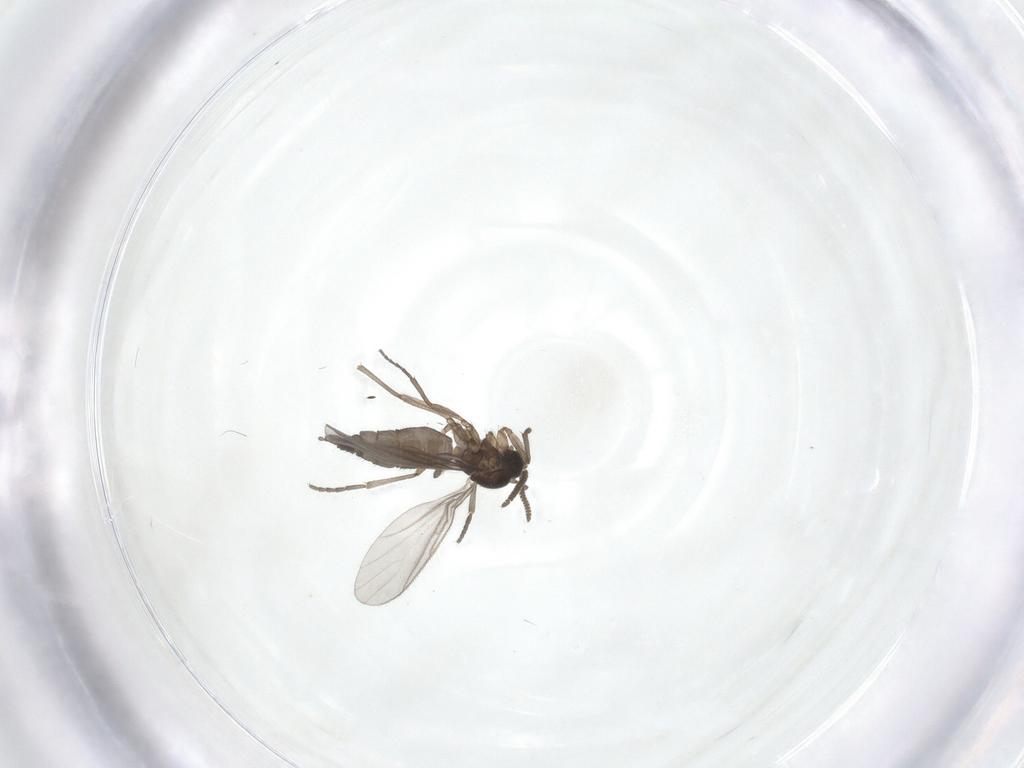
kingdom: Animalia
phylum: Arthropoda
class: Insecta
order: Diptera
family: Sciaridae
